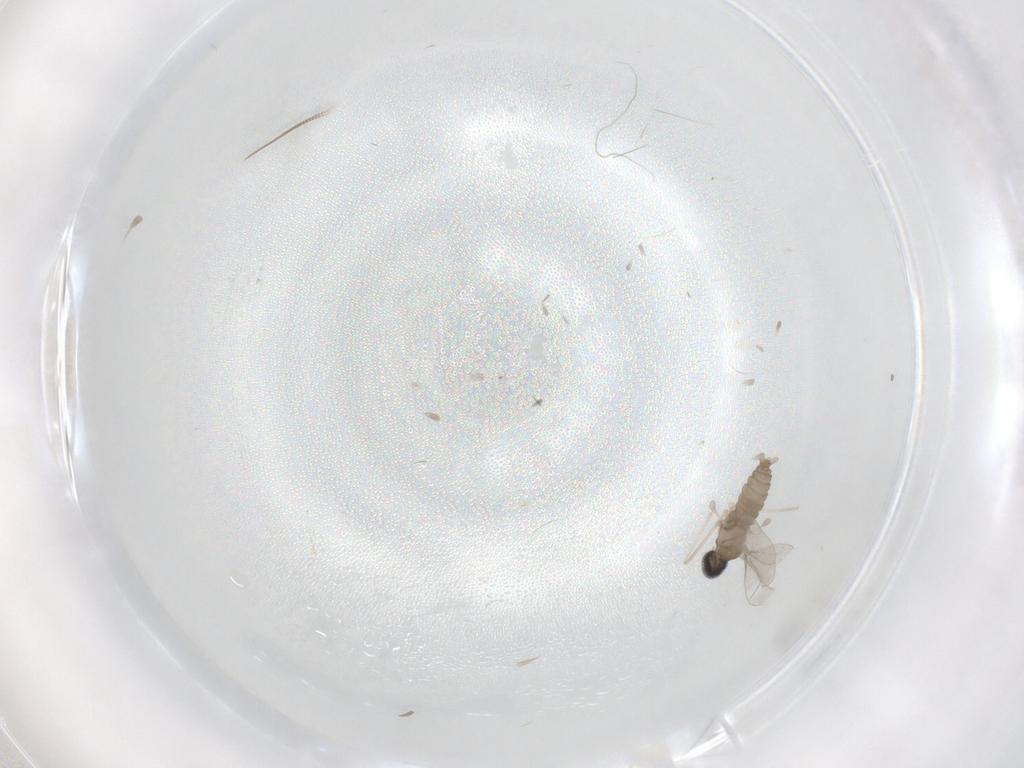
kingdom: Animalia
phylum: Arthropoda
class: Insecta
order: Diptera
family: Cecidomyiidae
